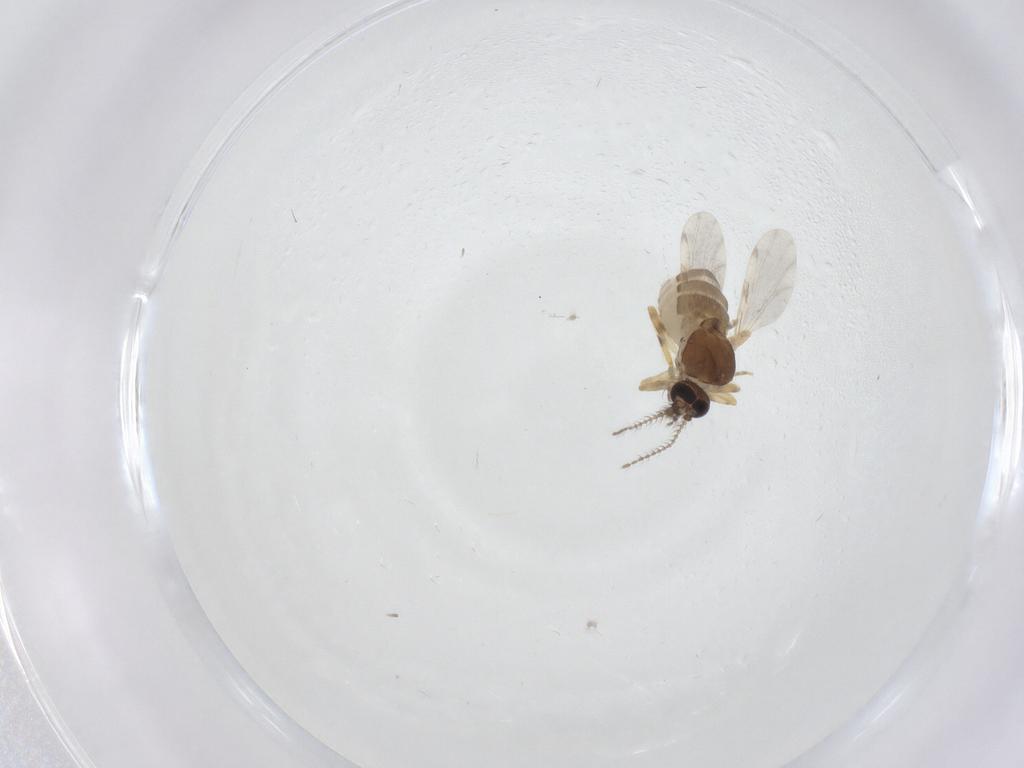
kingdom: Animalia
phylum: Arthropoda
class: Insecta
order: Diptera
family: Ceratopogonidae
